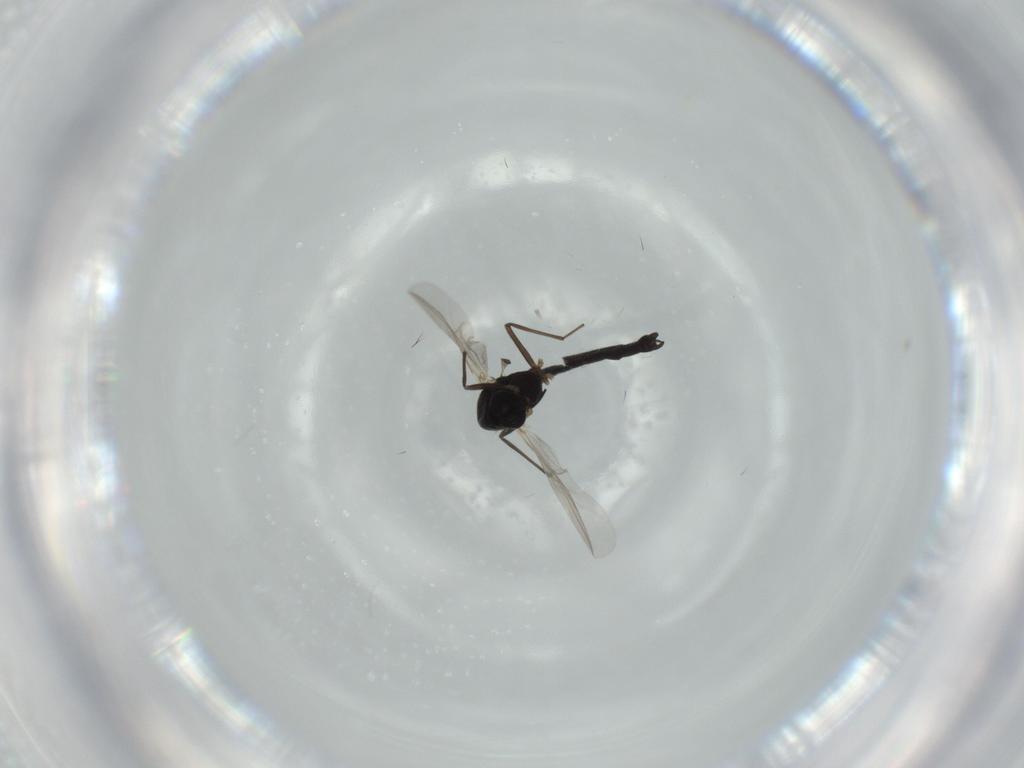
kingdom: Animalia
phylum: Arthropoda
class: Insecta
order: Diptera
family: Chironomidae
